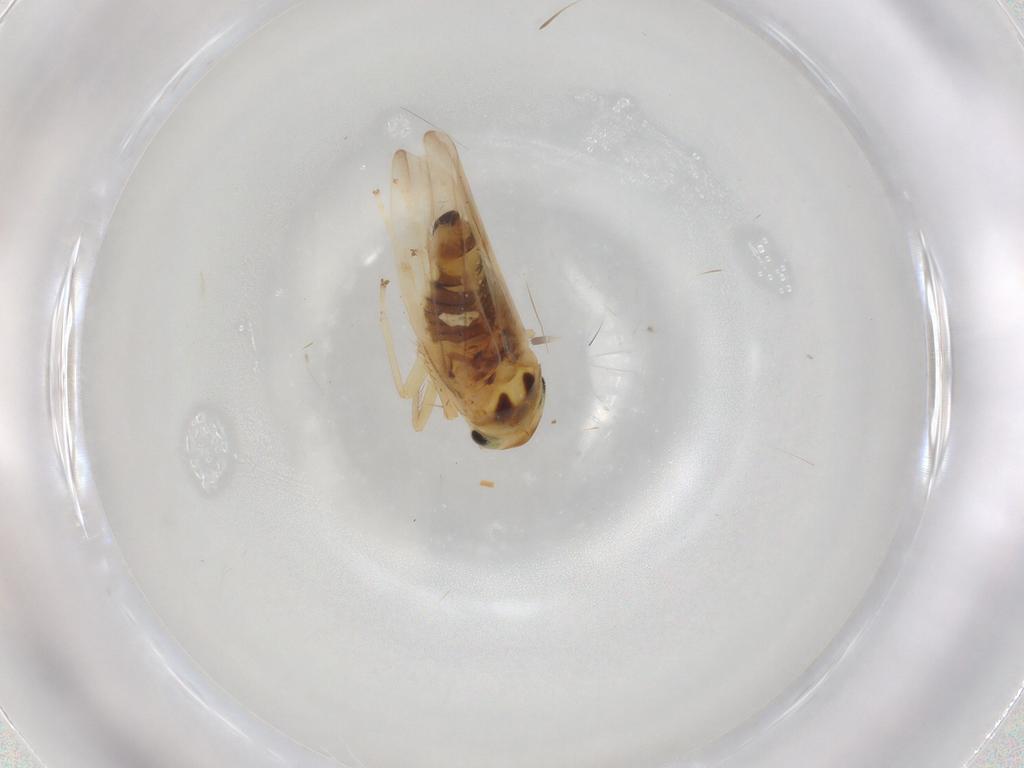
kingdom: Animalia
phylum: Arthropoda
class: Insecta
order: Hemiptera
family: Cicadellidae
